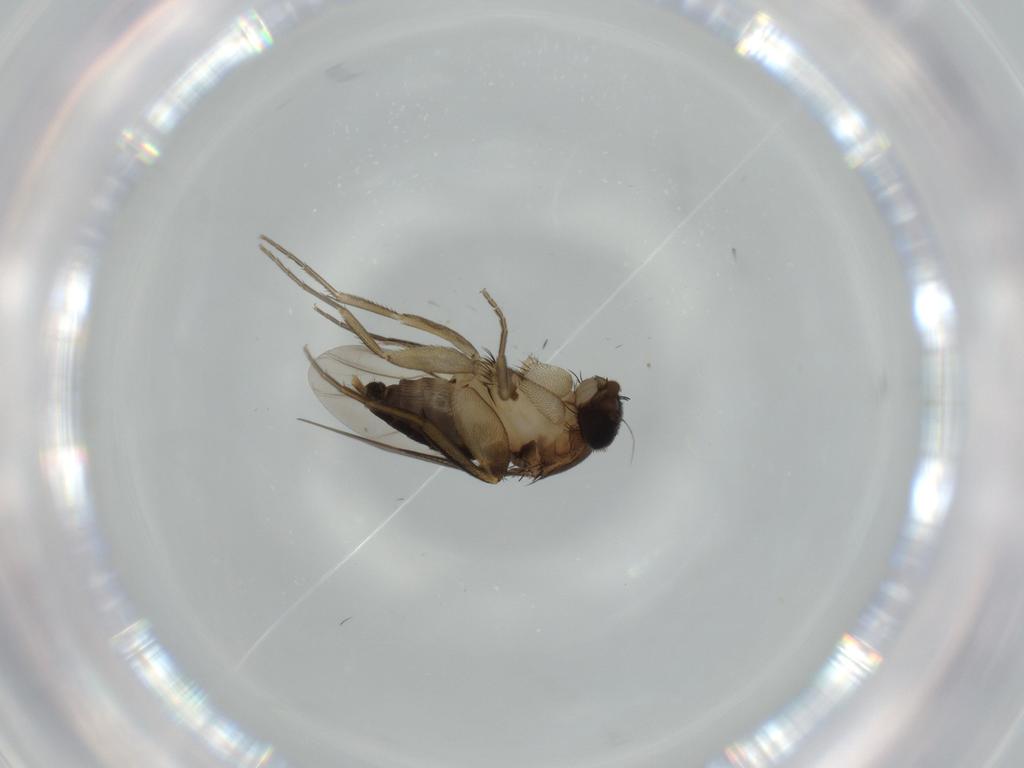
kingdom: Animalia
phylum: Arthropoda
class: Insecta
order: Diptera
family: Phoridae
